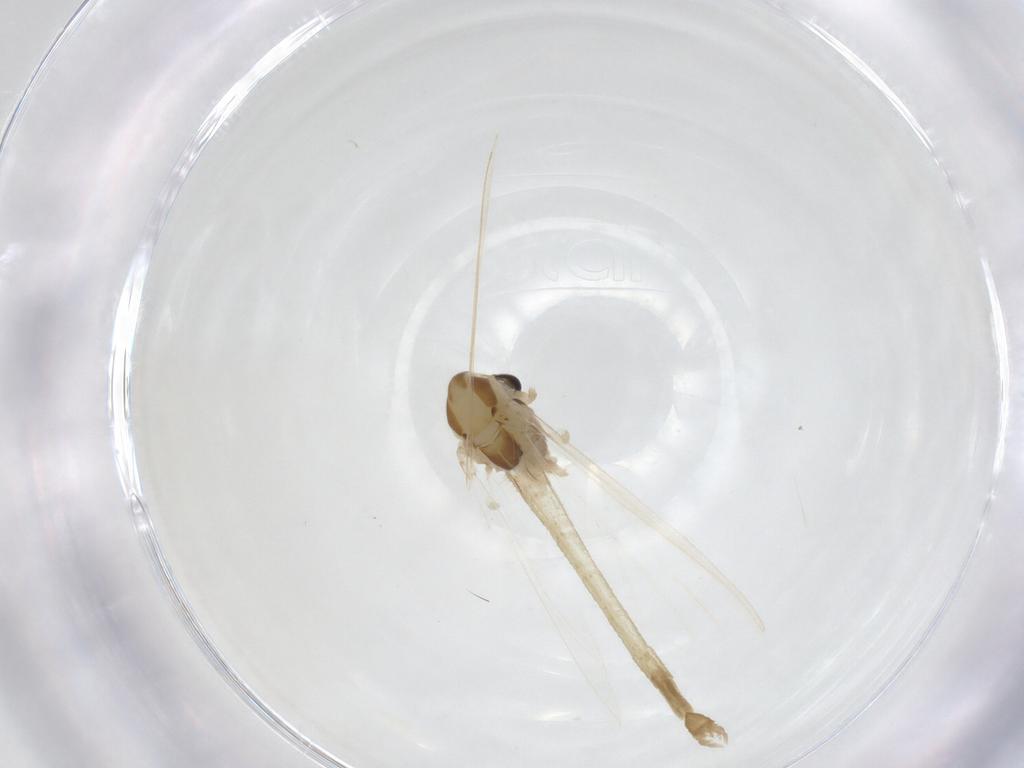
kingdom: Animalia
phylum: Arthropoda
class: Insecta
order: Diptera
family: Chironomidae
